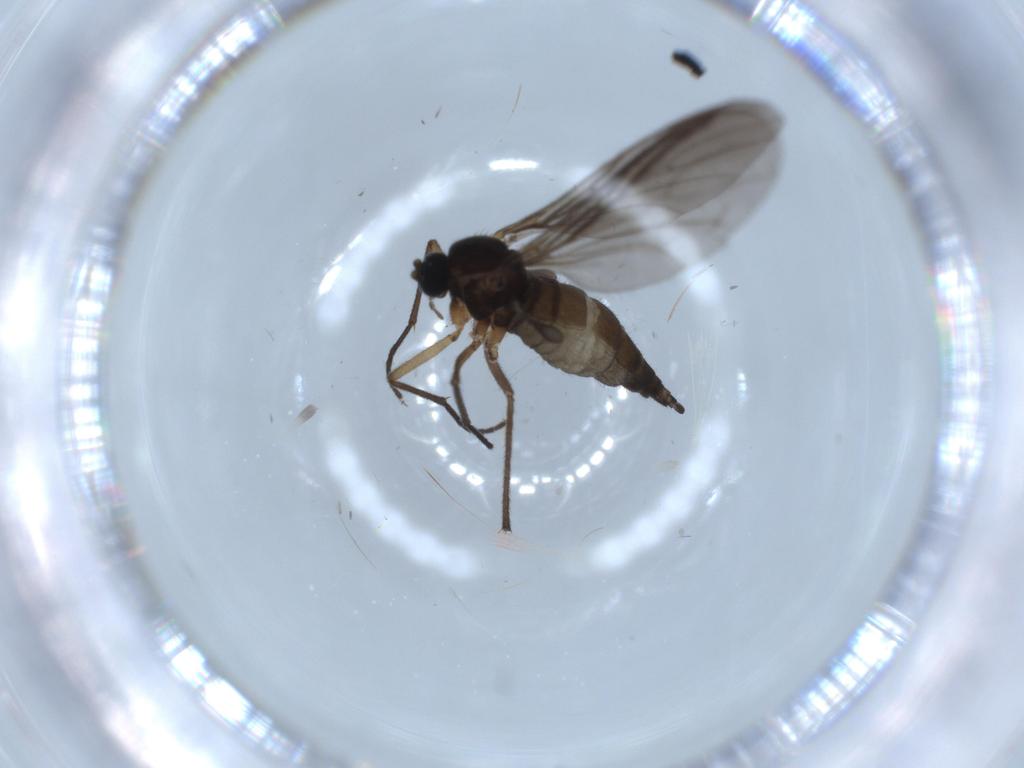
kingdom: Animalia
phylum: Arthropoda
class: Insecta
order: Diptera
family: Sciaridae
